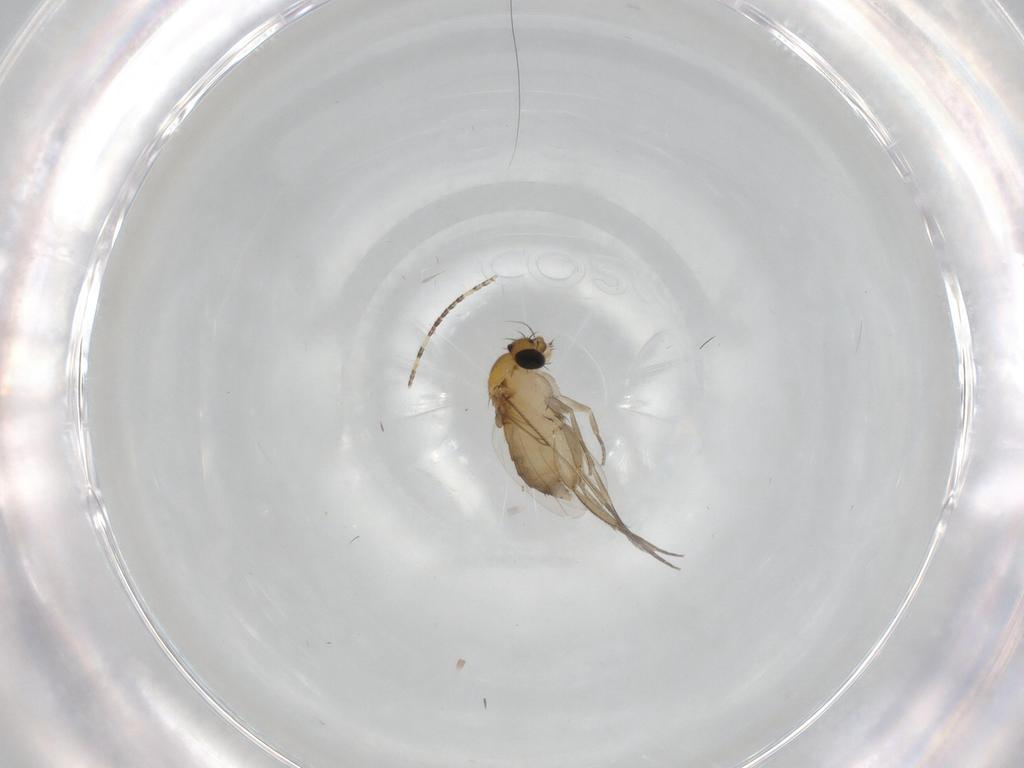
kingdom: Animalia
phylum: Arthropoda
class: Insecta
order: Diptera
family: Phoridae
